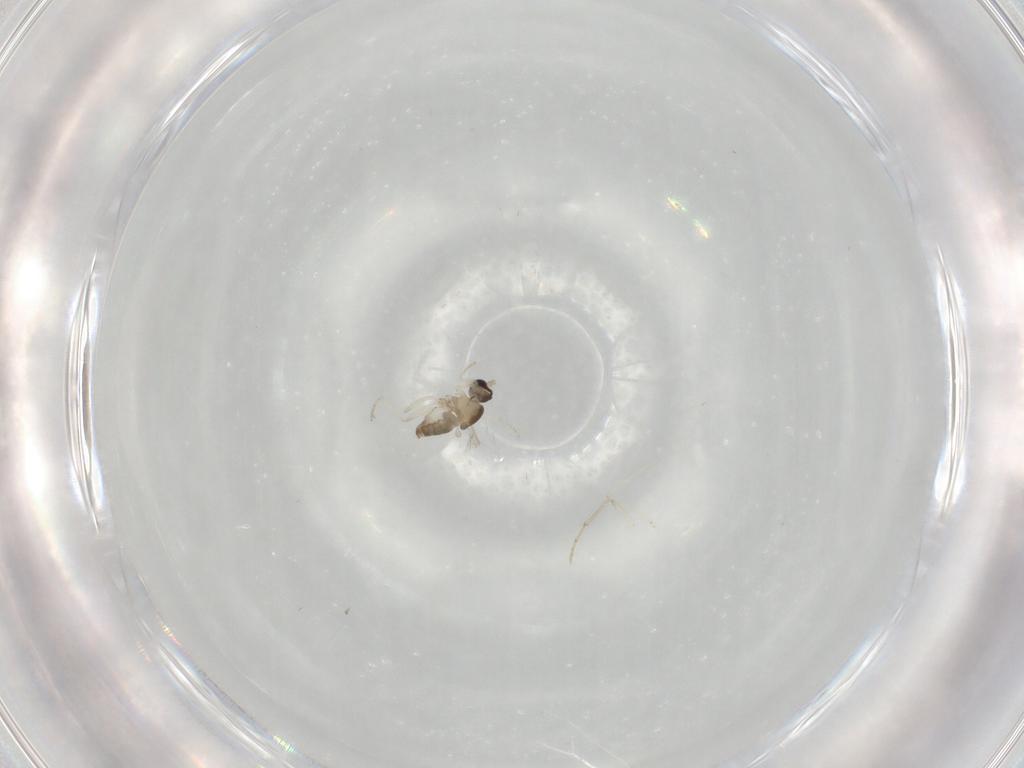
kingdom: Animalia
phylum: Arthropoda
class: Insecta
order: Diptera
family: Cecidomyiidae
